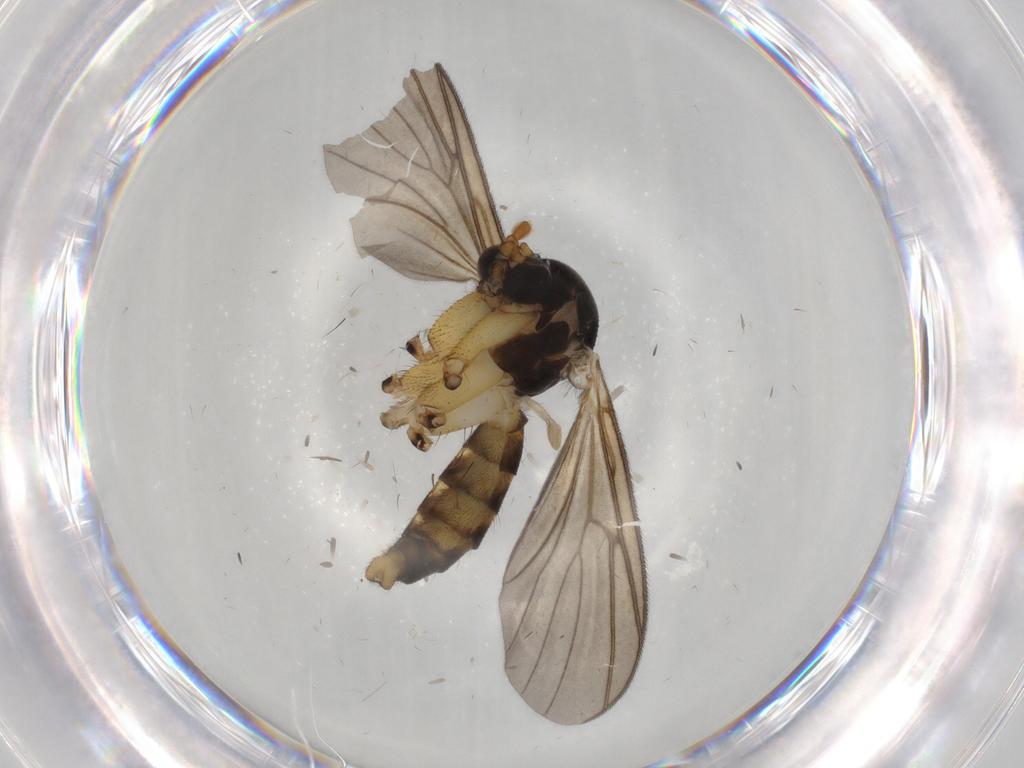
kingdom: Animalia
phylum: Arthropoda
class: Insecta
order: Diptera
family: Mycetophilidae
